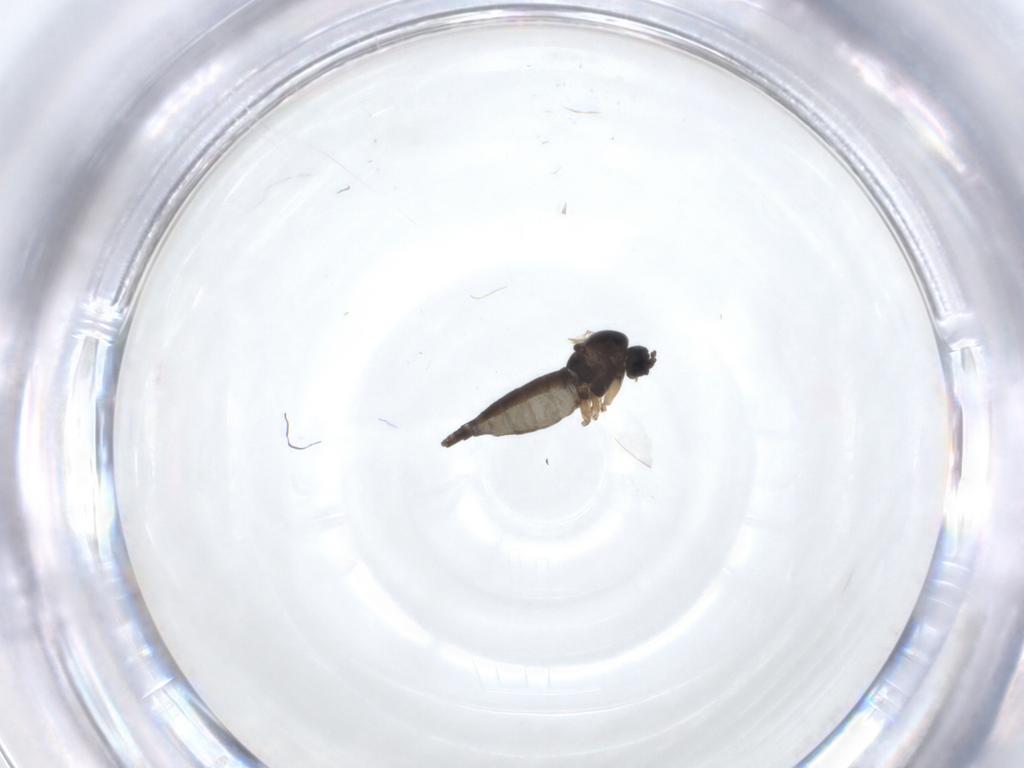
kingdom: Animalia
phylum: Arthropoda
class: Insecta
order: Diptera
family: Sciaridae
